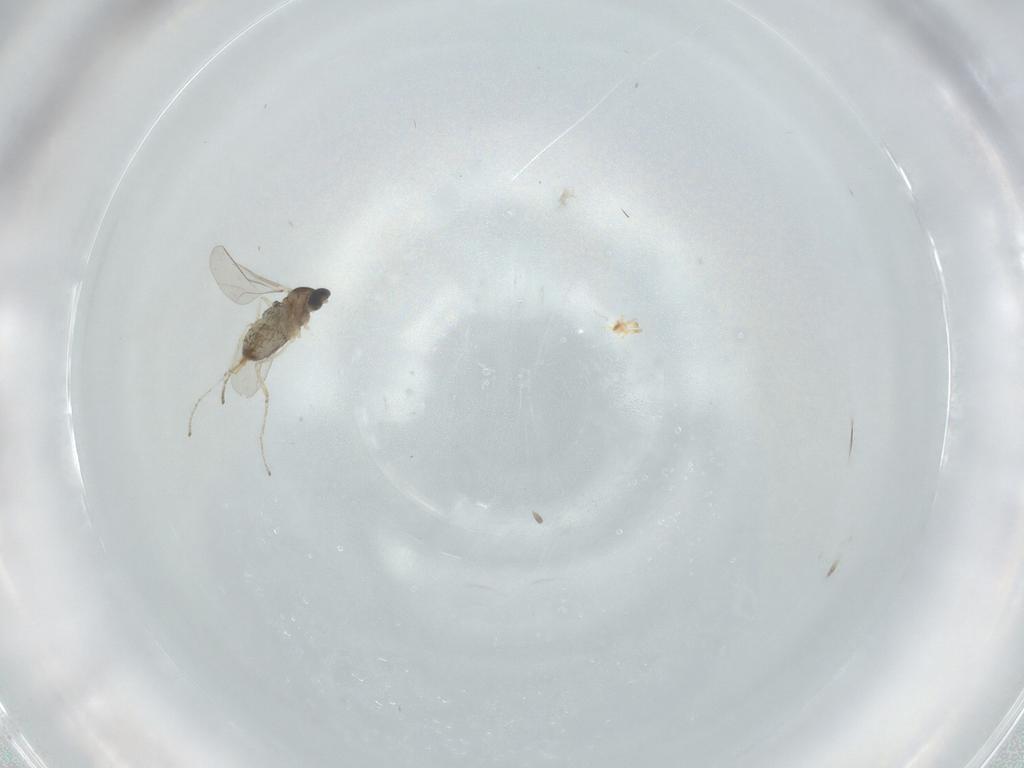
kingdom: Animalia
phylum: Arthropoda
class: Insecta
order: Diptera
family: Cecidomyiidae
